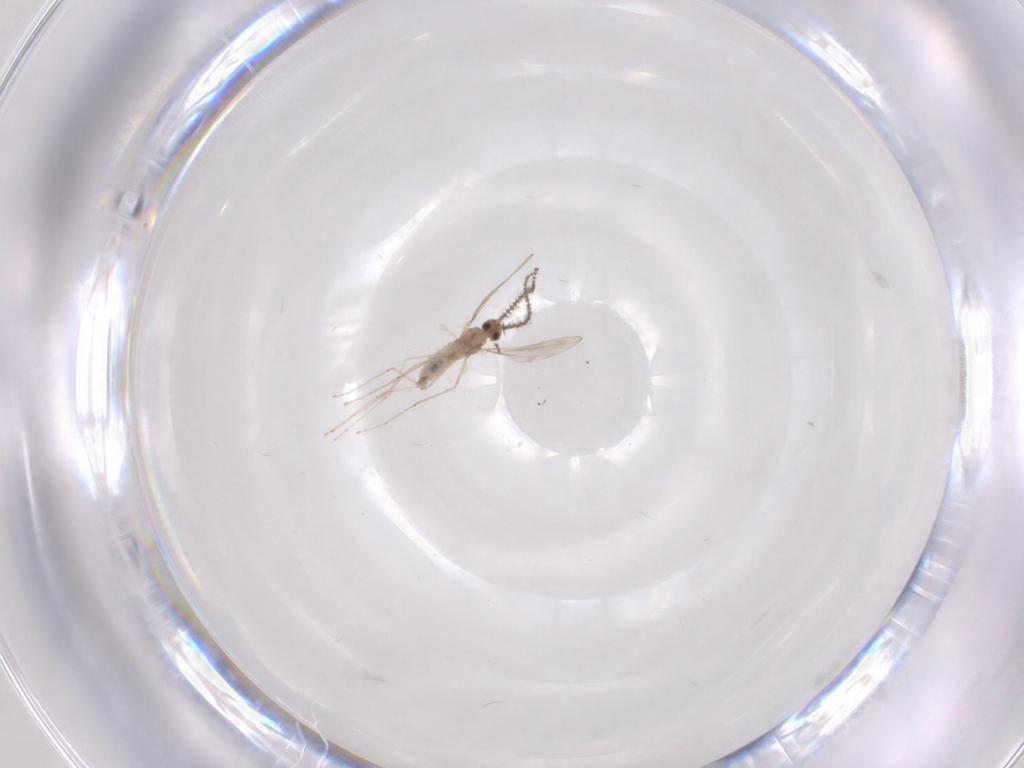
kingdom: Animalia
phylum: Arthropoda
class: Insecta
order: Diptera
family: Cecidomyiidae
